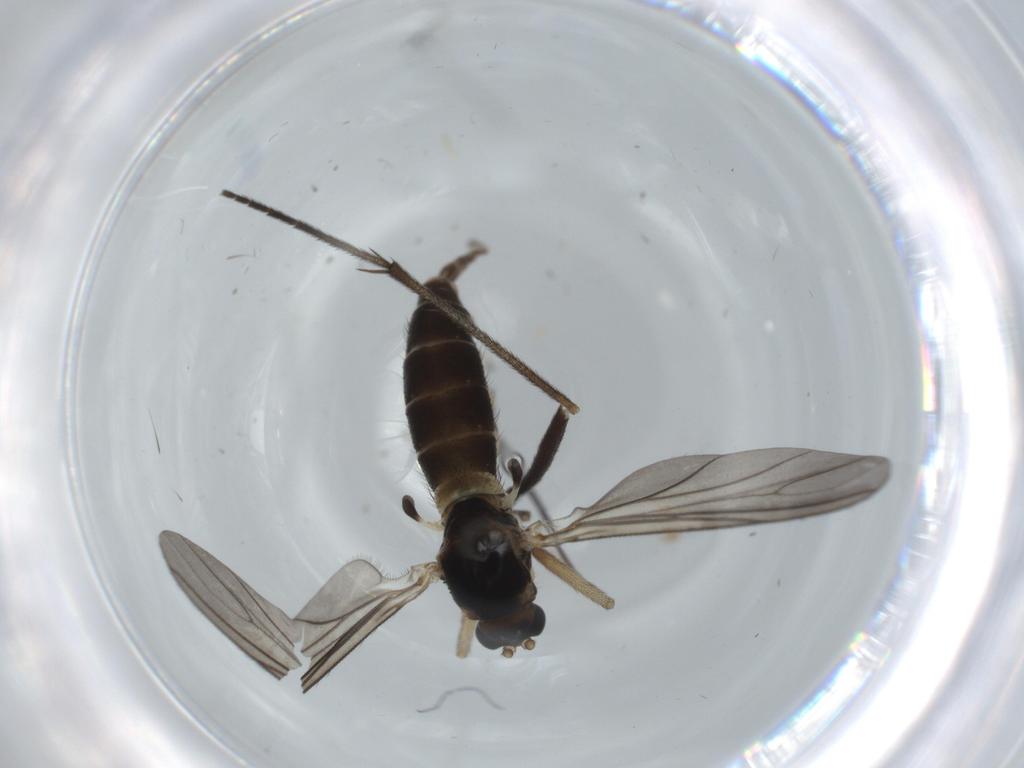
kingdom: Animalia
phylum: Arthropoda
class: Insecta
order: Diptera
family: Sciaridae
